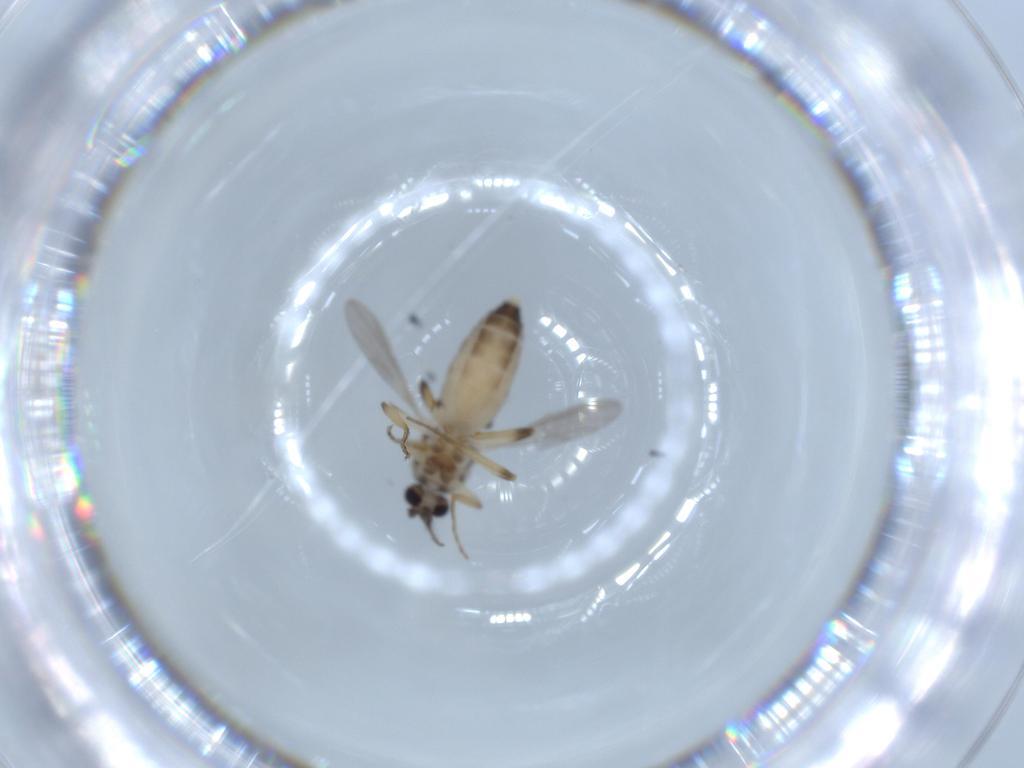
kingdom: Animalia
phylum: Arthropoda
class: Insecta
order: Diptera
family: Ceratopogonidae
